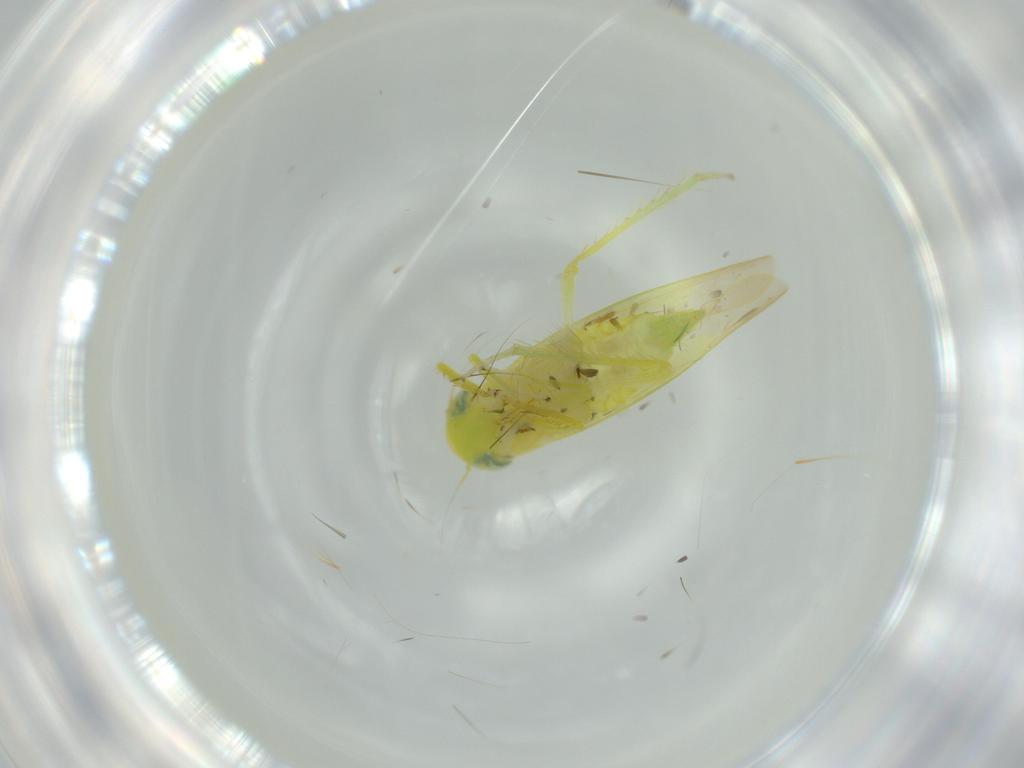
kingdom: Animalia
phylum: Arthropoda
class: Insecta
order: Hemiptera
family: Cicadellidae
